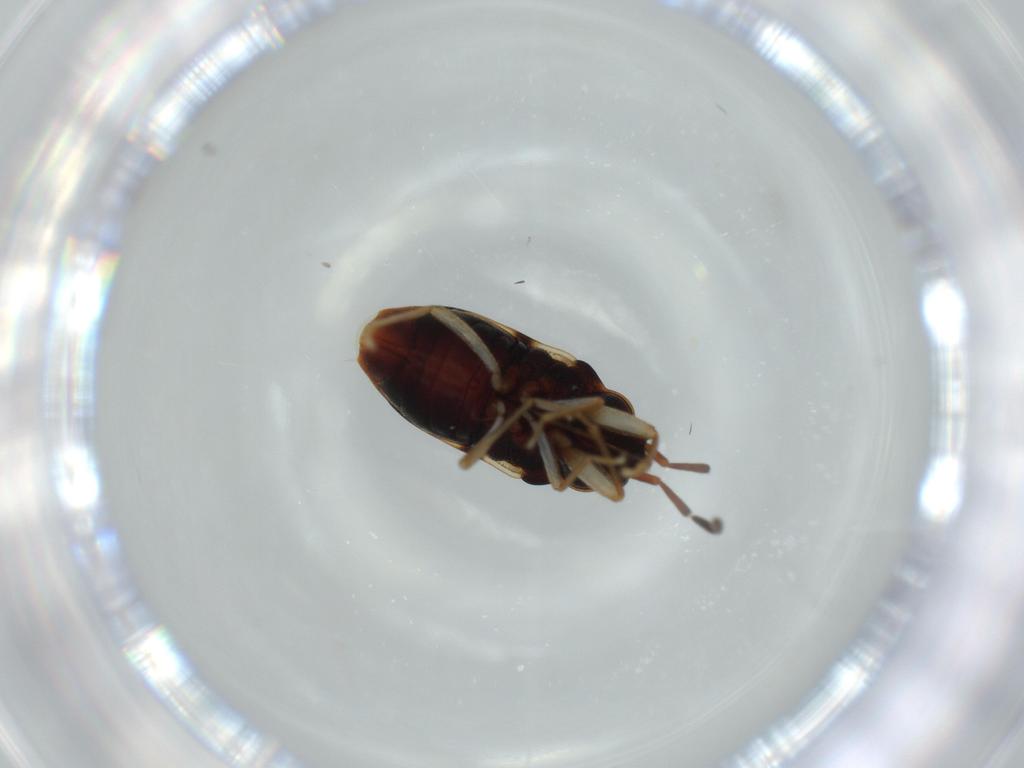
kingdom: Animalia
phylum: Arthropoda
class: Insecta
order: Hemiptera
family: Rhyparochromidae
